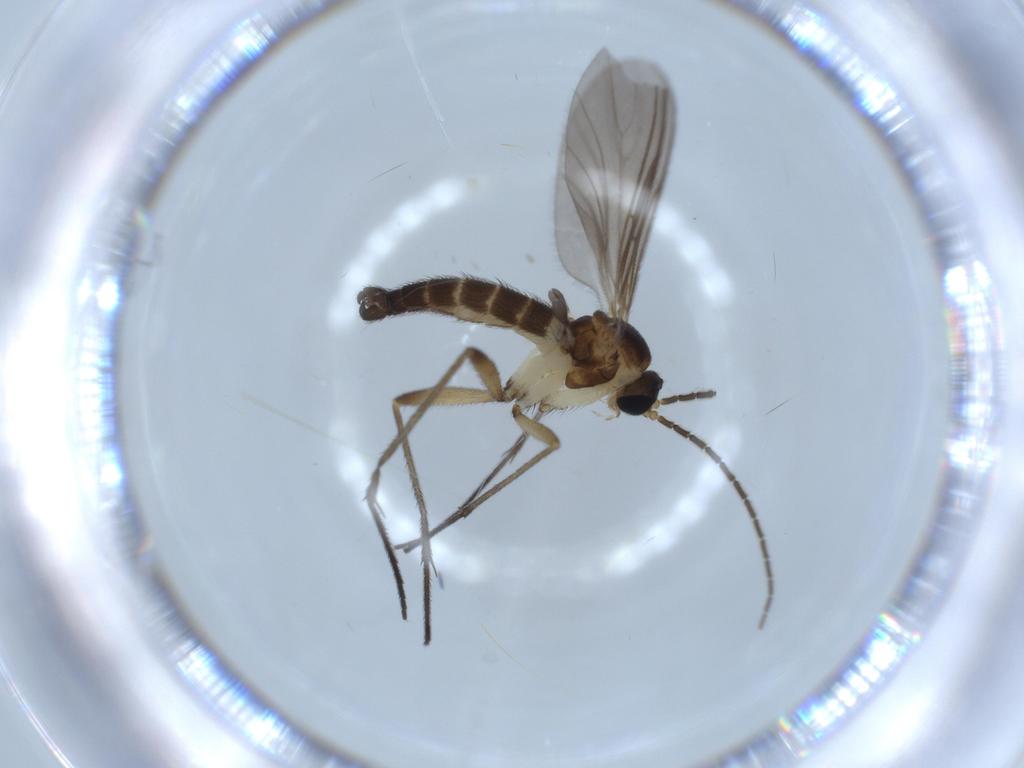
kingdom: Animalia
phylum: Arthropoda
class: Insecta
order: Diptera
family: Sciaridae
